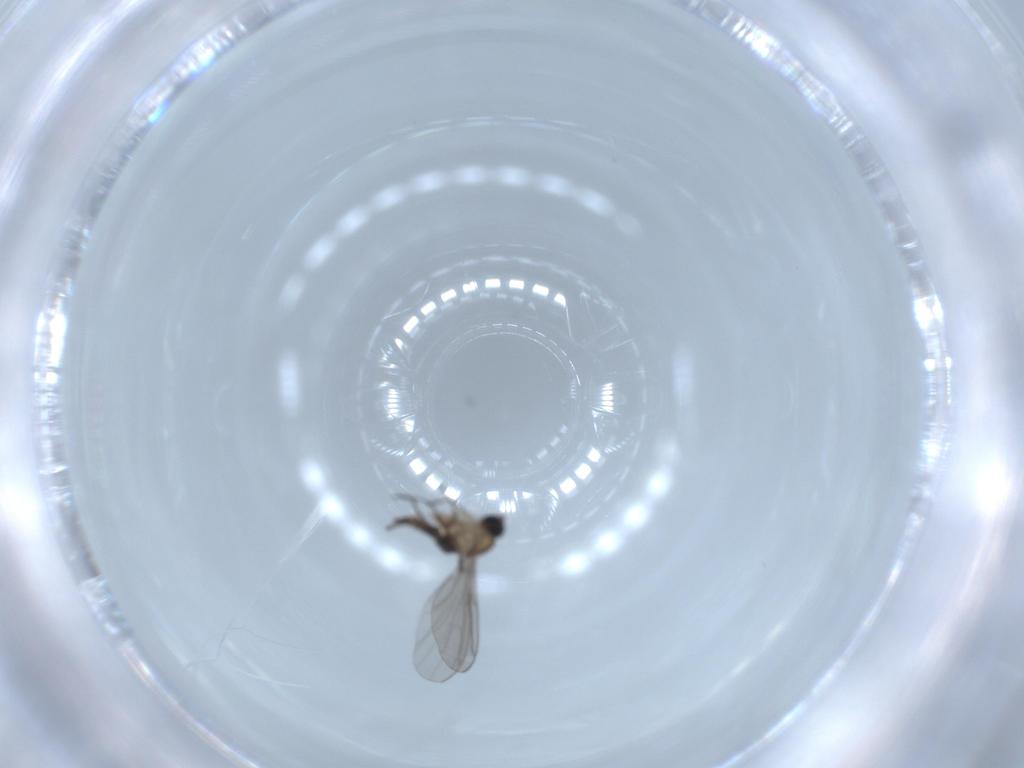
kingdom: Animalia
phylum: Arthropoda
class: Insecta
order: Diptera
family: Sciaridae
